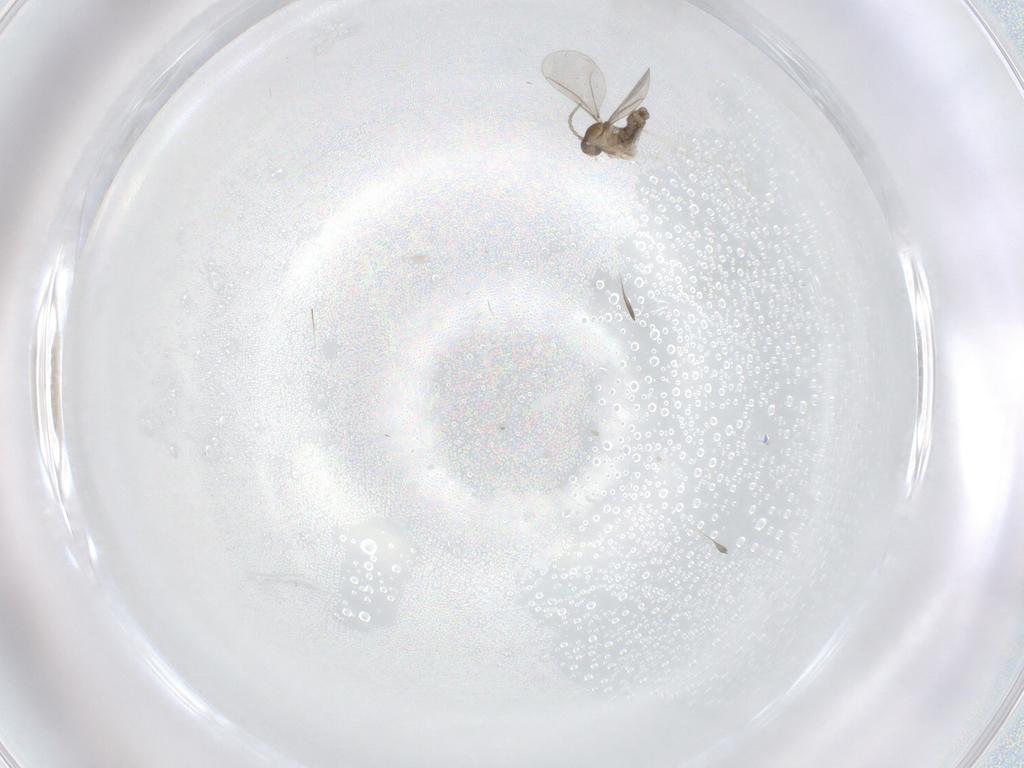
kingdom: Animalia
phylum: Arthropoda
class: Insecta
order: Diptera
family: Cecidomyiidae
